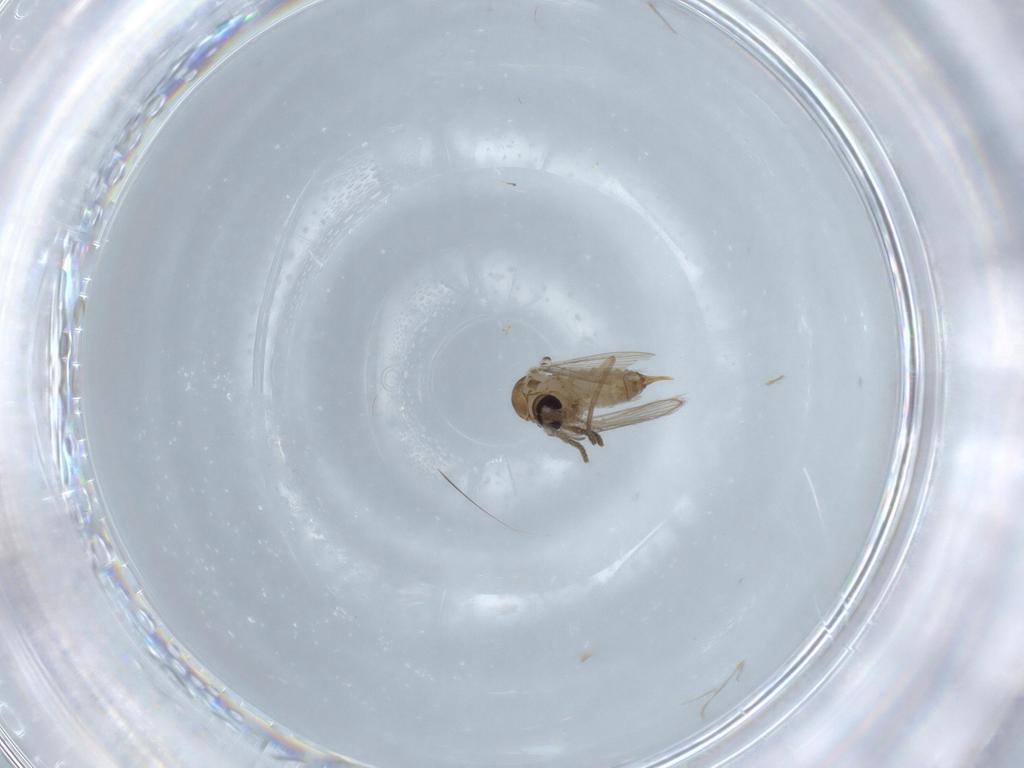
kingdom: Animalia
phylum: Arthropoda
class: Insecta
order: Diptera
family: Psychodidae
